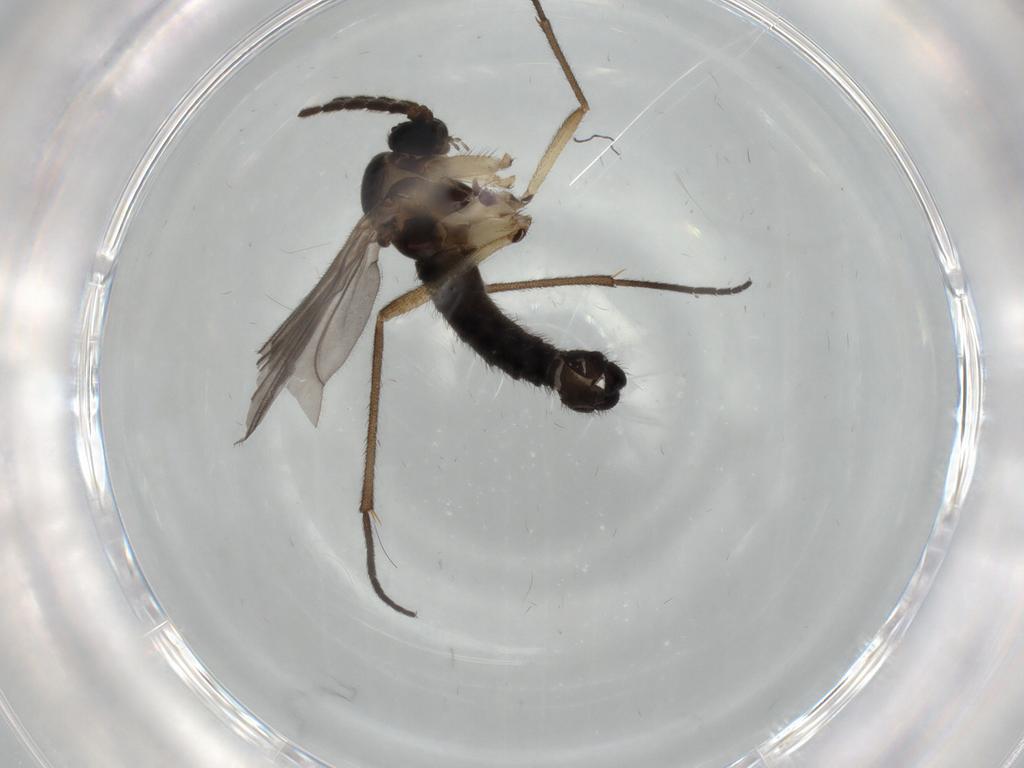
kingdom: Animalia
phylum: Arthropoda
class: Insecta
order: Diptera
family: Sciaridae
